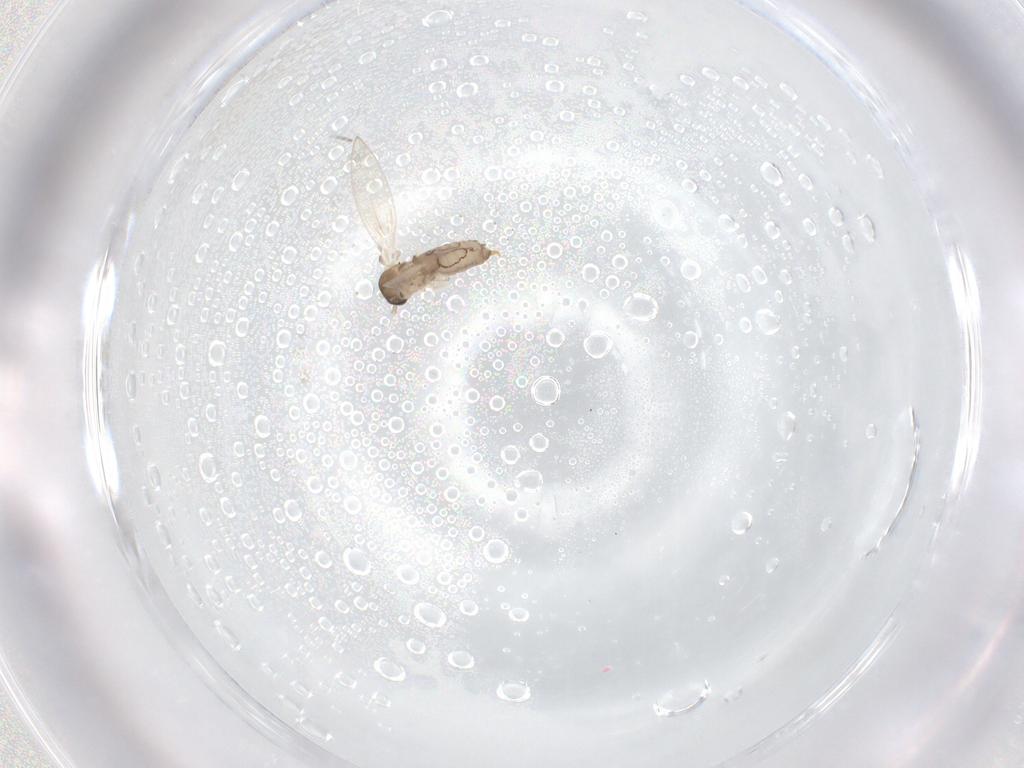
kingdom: Animalia
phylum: Arthropoda
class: Insecta
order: Diptera
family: Psychodidae
